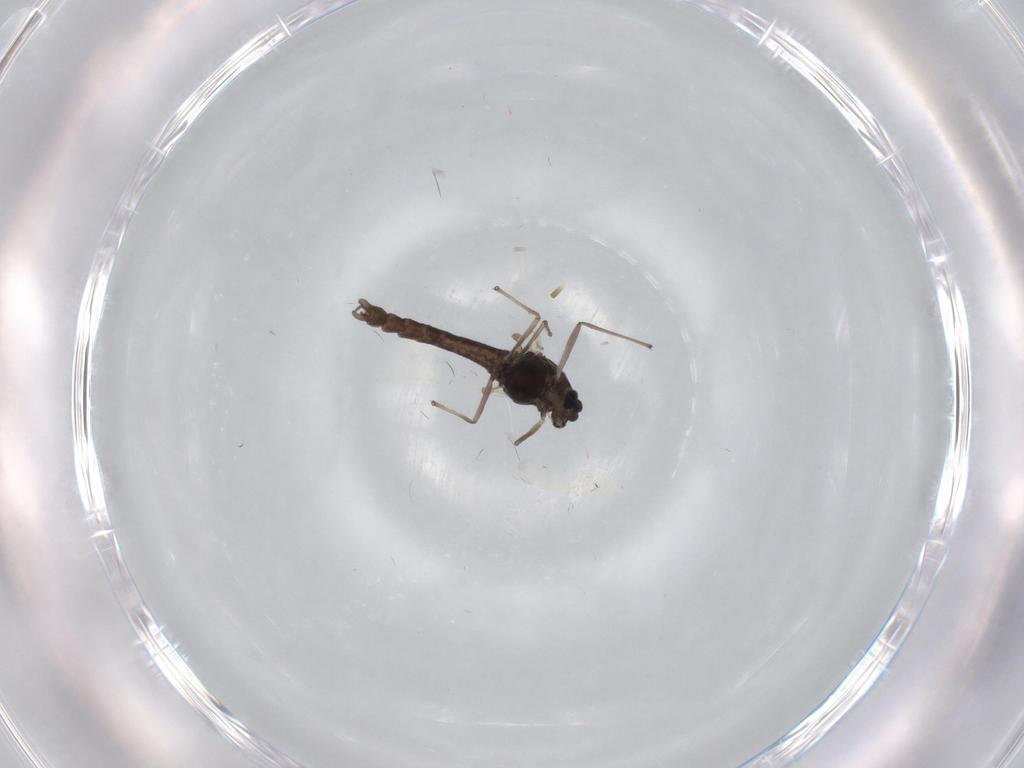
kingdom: Animalia
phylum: Arthropoda
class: Insecta
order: Diptera
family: Chironomidae
